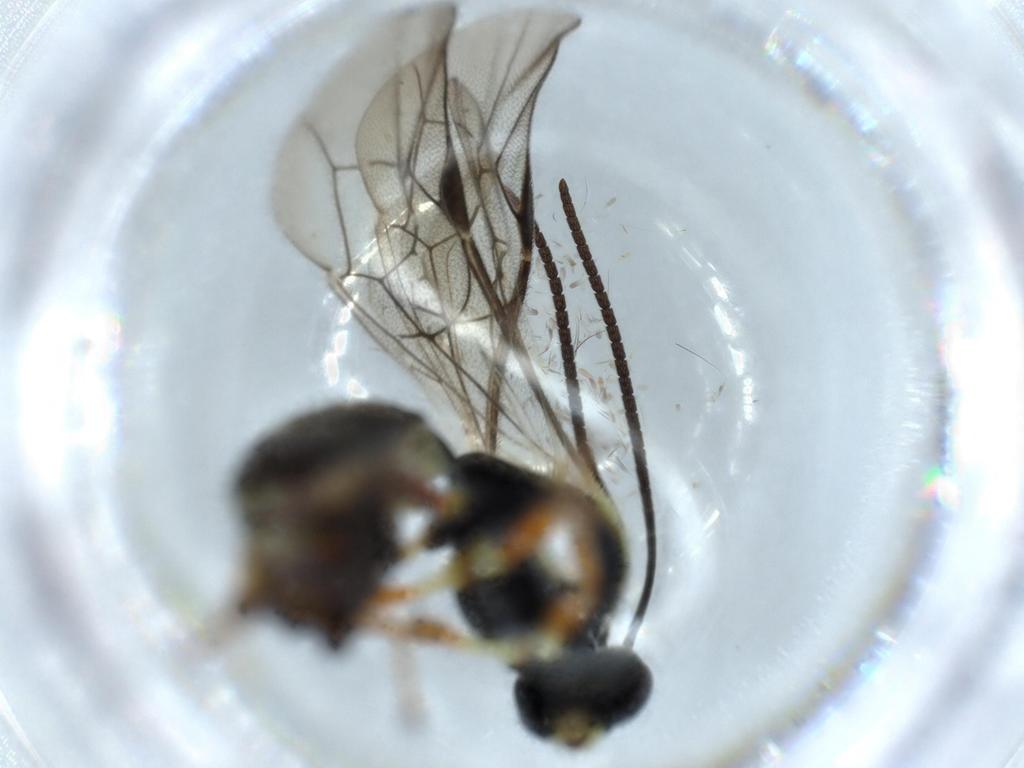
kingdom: Animalia
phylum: Arthropoda
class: Insecta
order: Hymenoptera
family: Ichneumonidae
